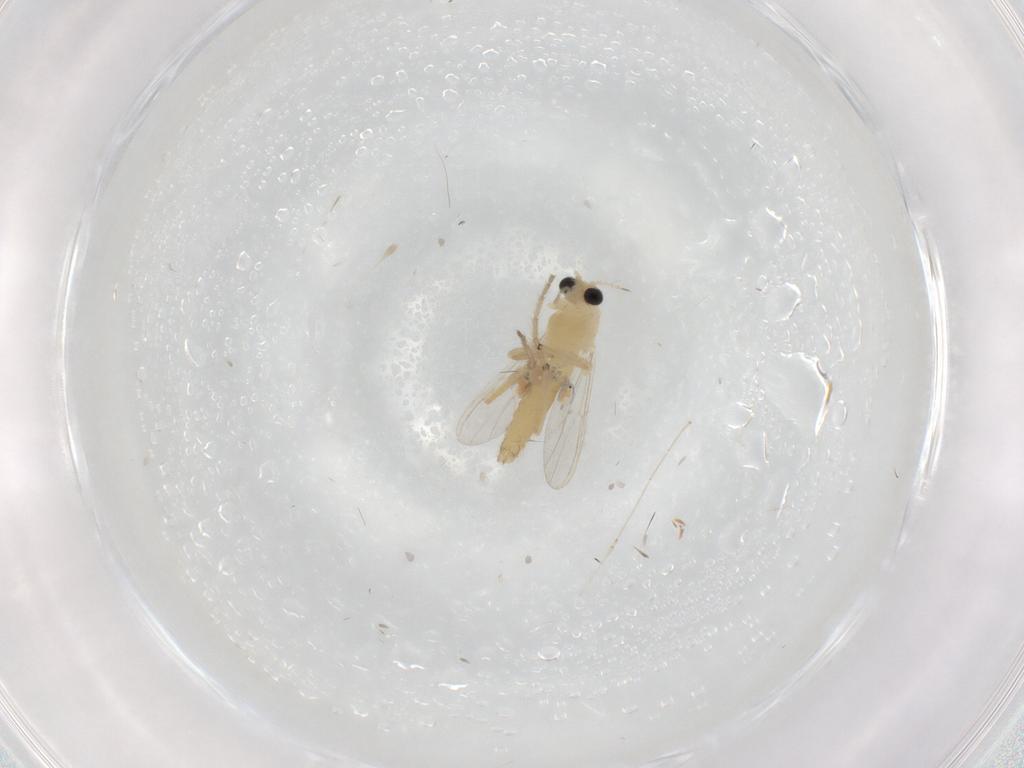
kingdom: Animalia
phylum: Arthropoda
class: Insecta
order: Diptera
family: Chironomidae
